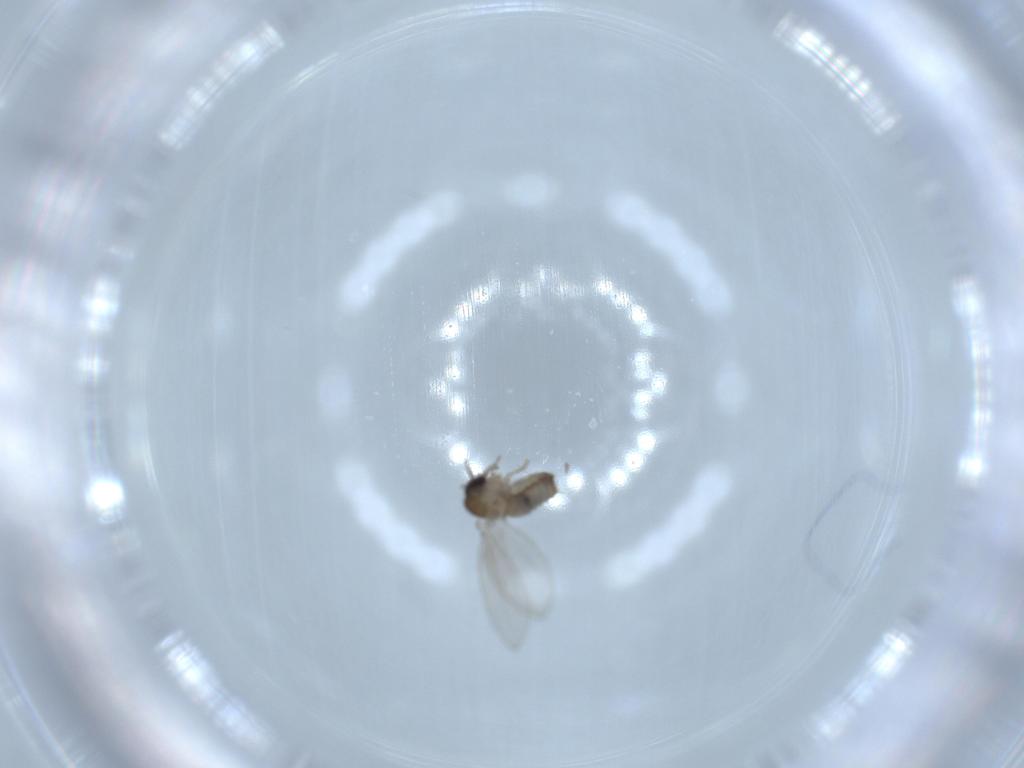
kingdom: Animalia
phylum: Arthropoda
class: Insecta
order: Diptera
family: Psychodidae
